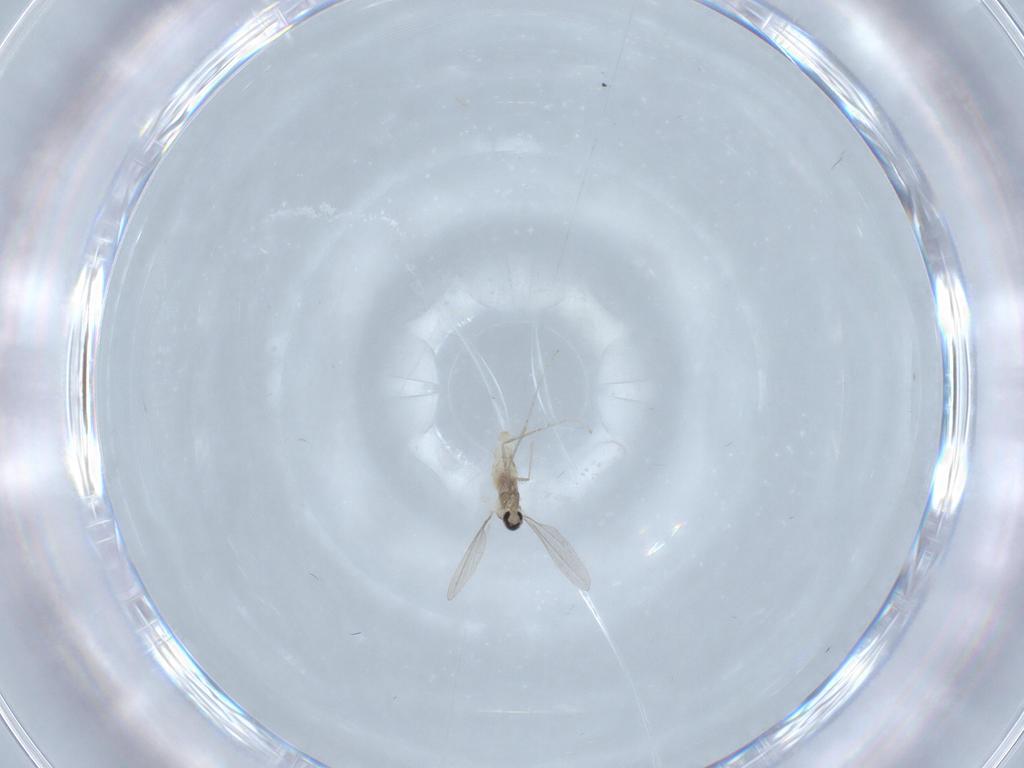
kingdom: Animalia
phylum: Arthropoda
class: Insecta
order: Diptera
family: Cecidomyiidae
